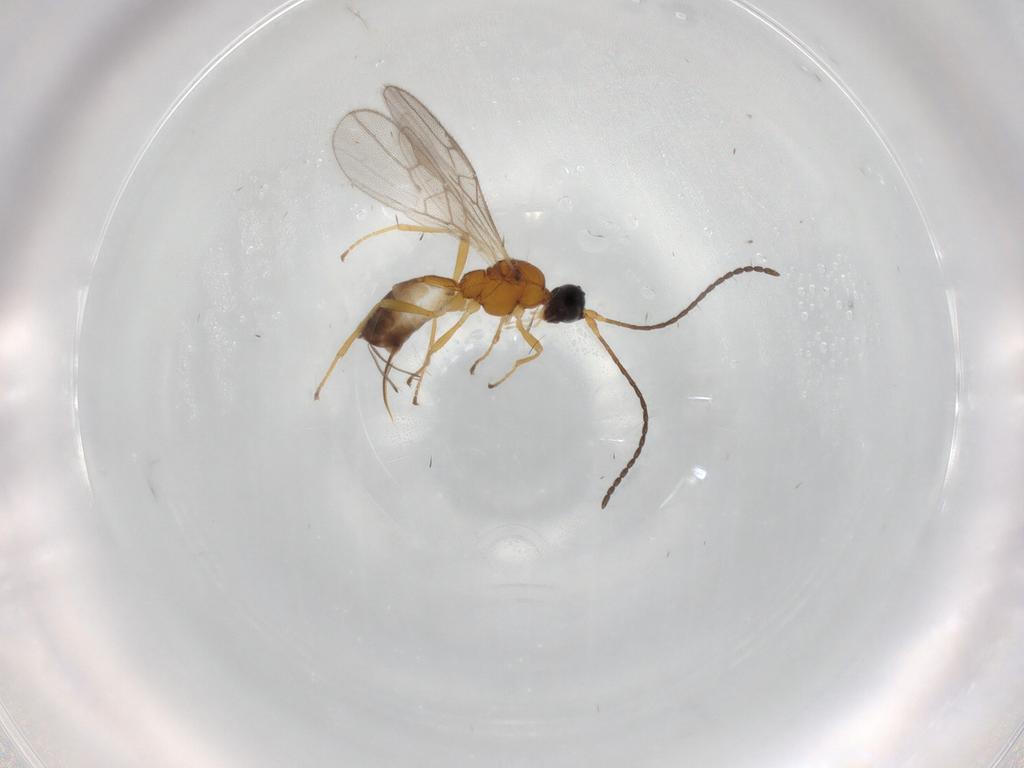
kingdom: Animalia
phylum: Arthropoda
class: Insecta
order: Hymenoptera
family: Braconidae
